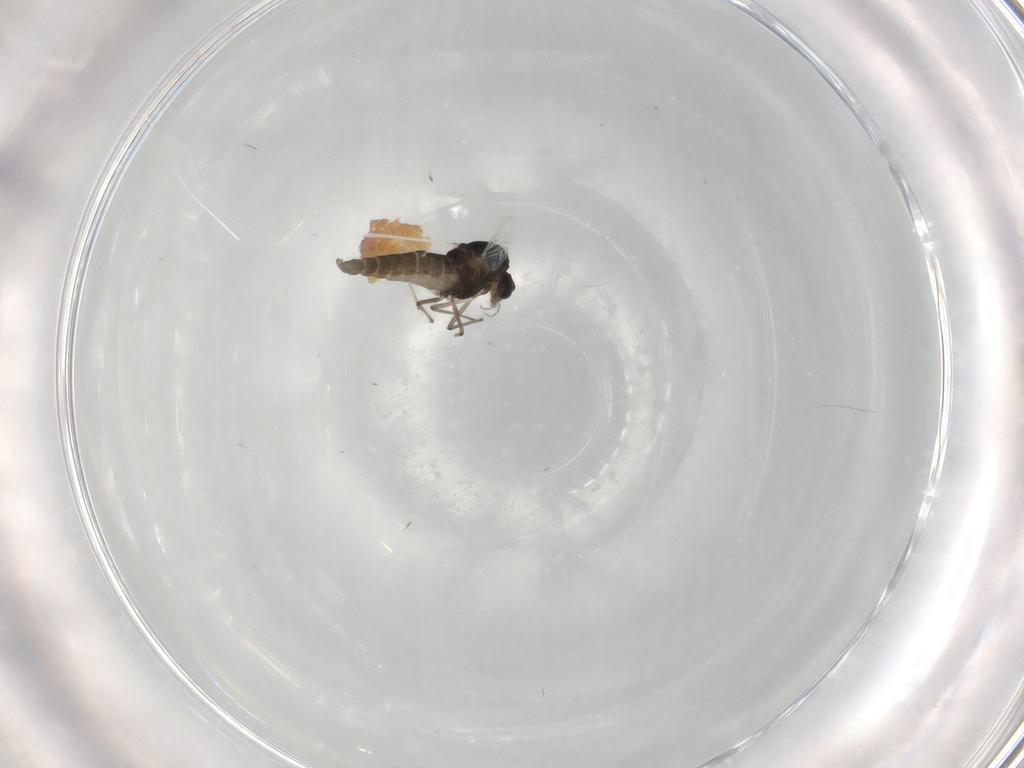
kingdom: Animalia
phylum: Arthropoda
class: Insecta
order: Diptera
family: Chironomidae
